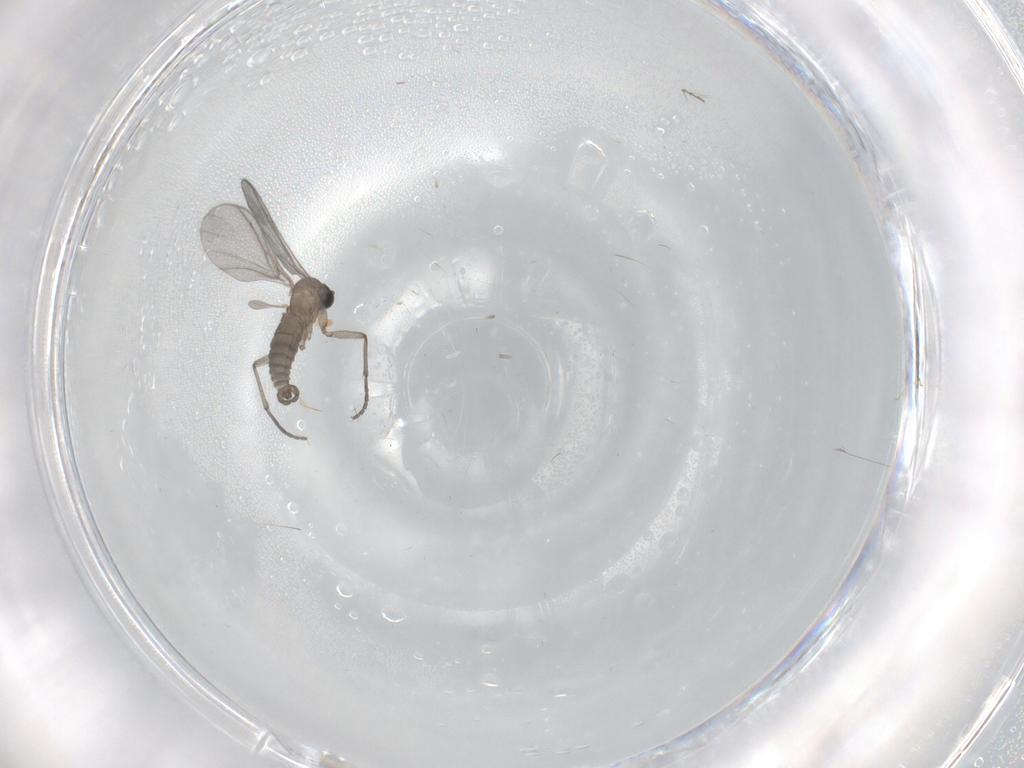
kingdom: Animalia
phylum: Arthropoda
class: Insecta
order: Diptera
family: Sciaridae
